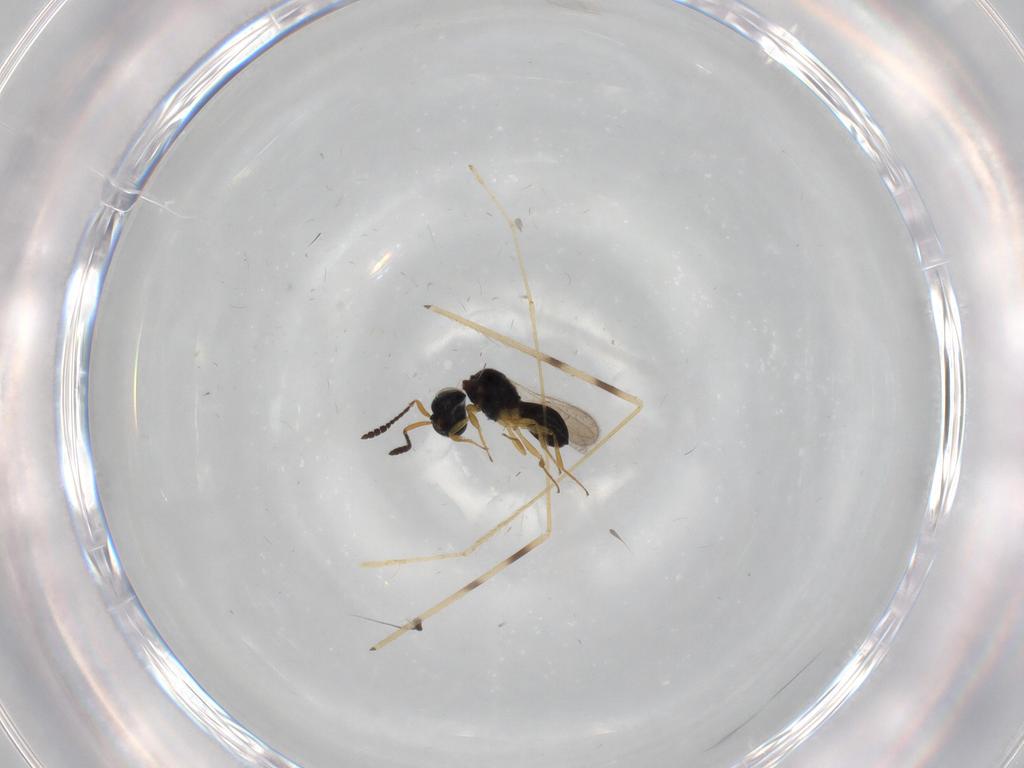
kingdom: Animalia
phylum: Arthropoda
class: Insecta
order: Hymenoptera
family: Scelionidae
